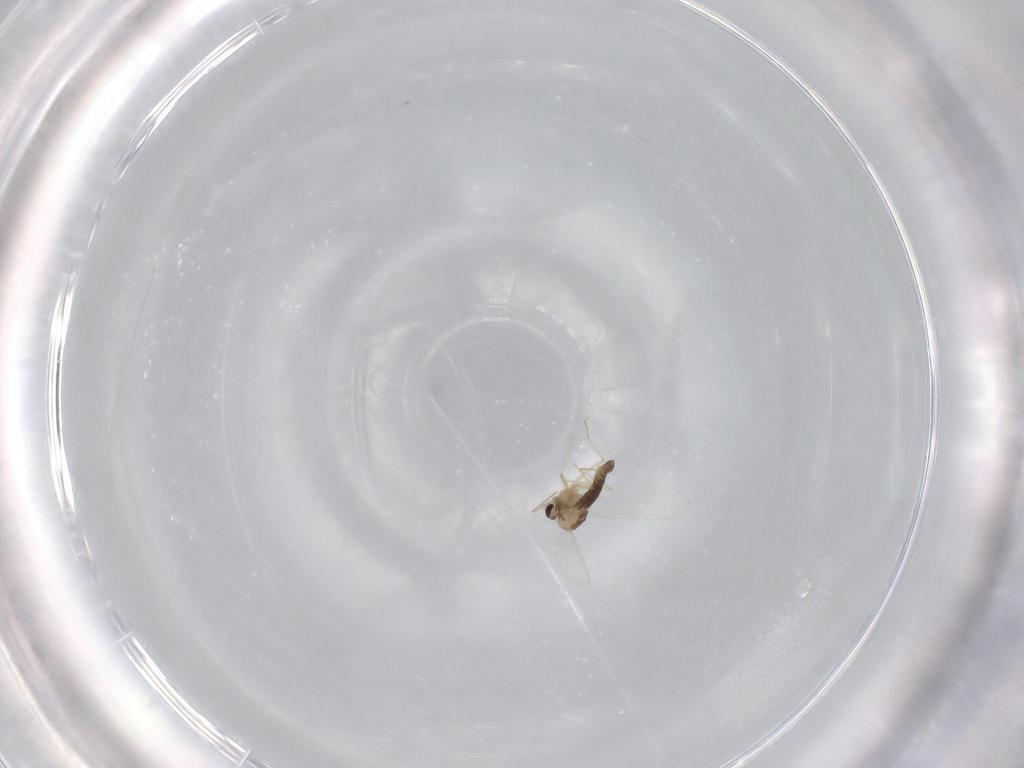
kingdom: Animalia
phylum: Arthropoda
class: Insecta
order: Diptera
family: Chironomidae
